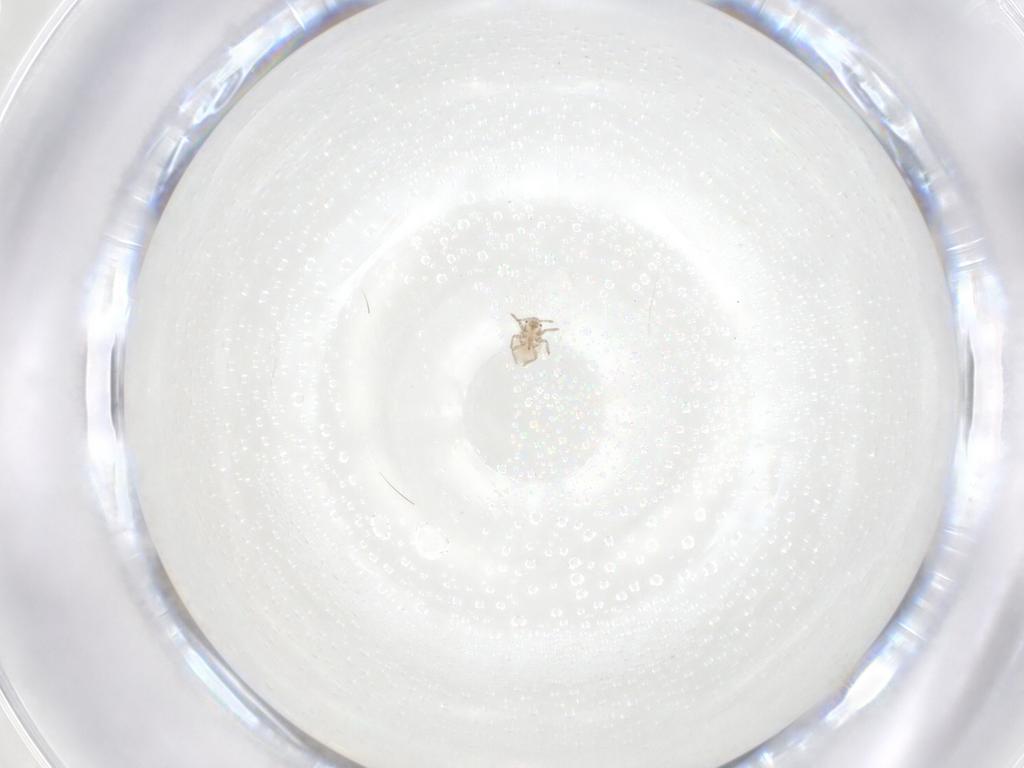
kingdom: Animalia
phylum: Arthropoda
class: Insecta
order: Hemiptera
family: Aphididae
